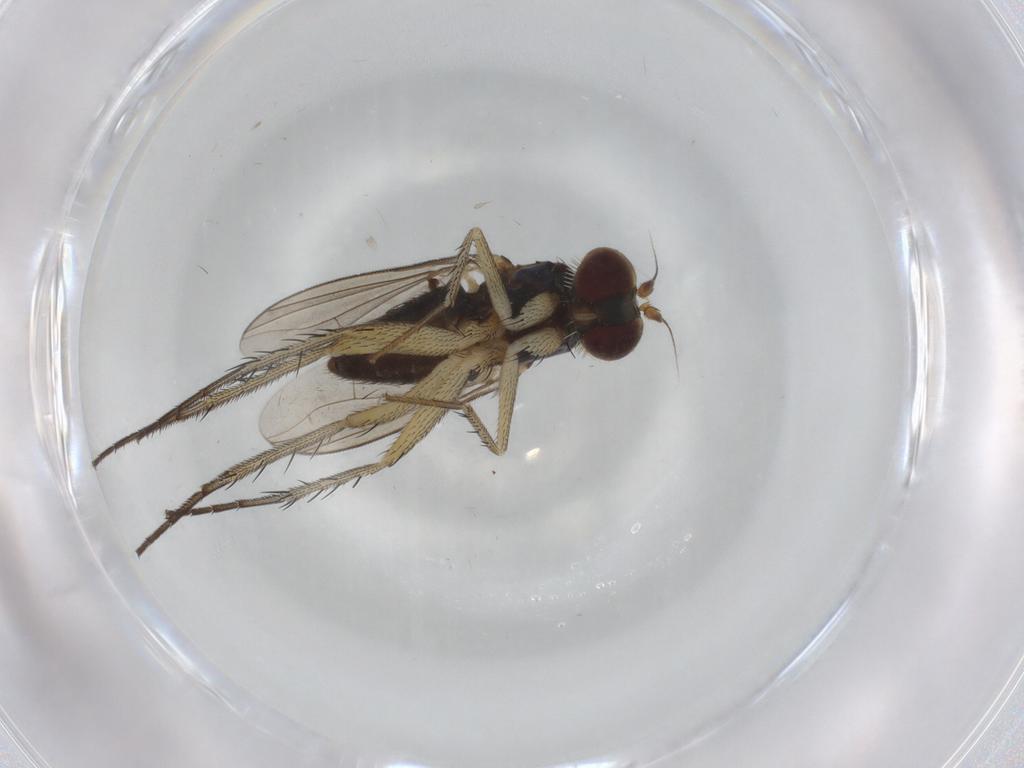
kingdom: Animalia
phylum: Arthropoda
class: Insecta
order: Diptera
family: Dolichopodidae
